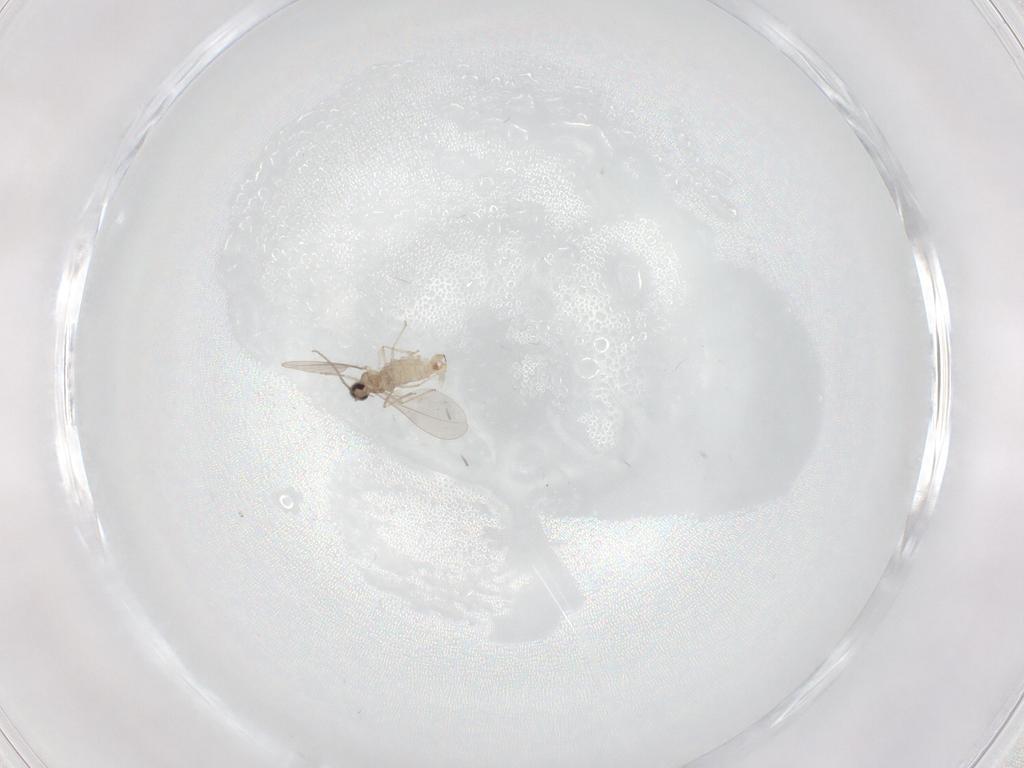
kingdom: Animalia
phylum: Arthropoda
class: Insecta
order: Diptera
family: Cecidomyiidae
